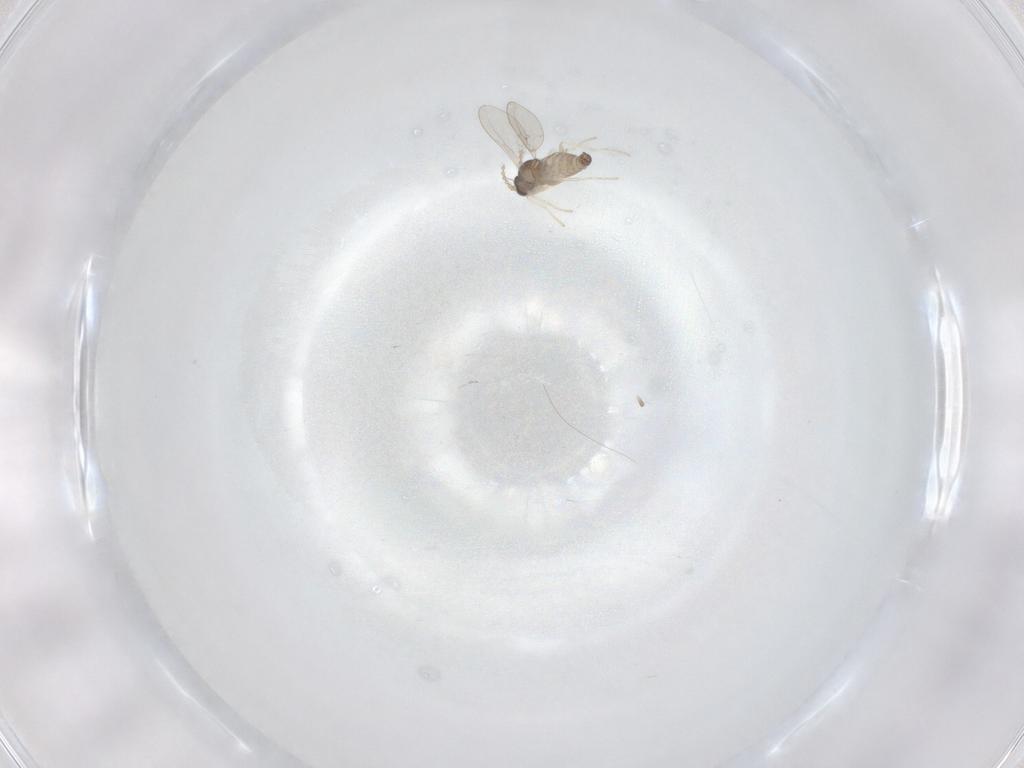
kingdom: Animalia
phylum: Arthropoda
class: Insecta
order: Diptera
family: Cecidomyiidae
